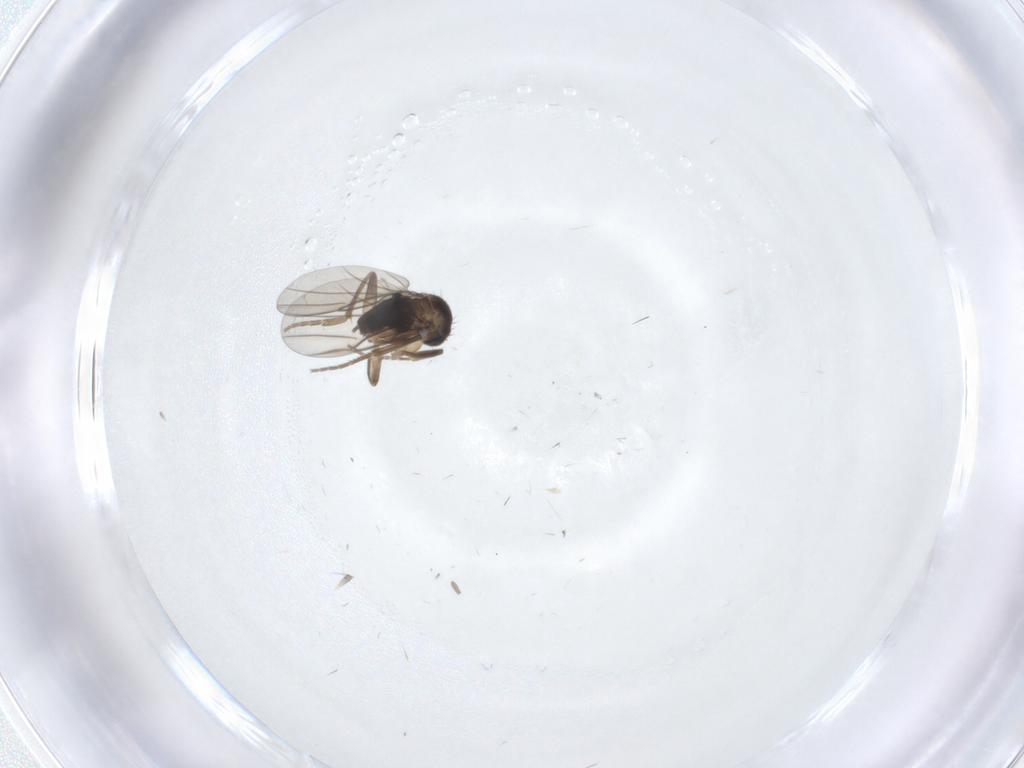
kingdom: Animalia
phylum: Arthropoda
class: Insecta
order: Diptera
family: Phoridae
